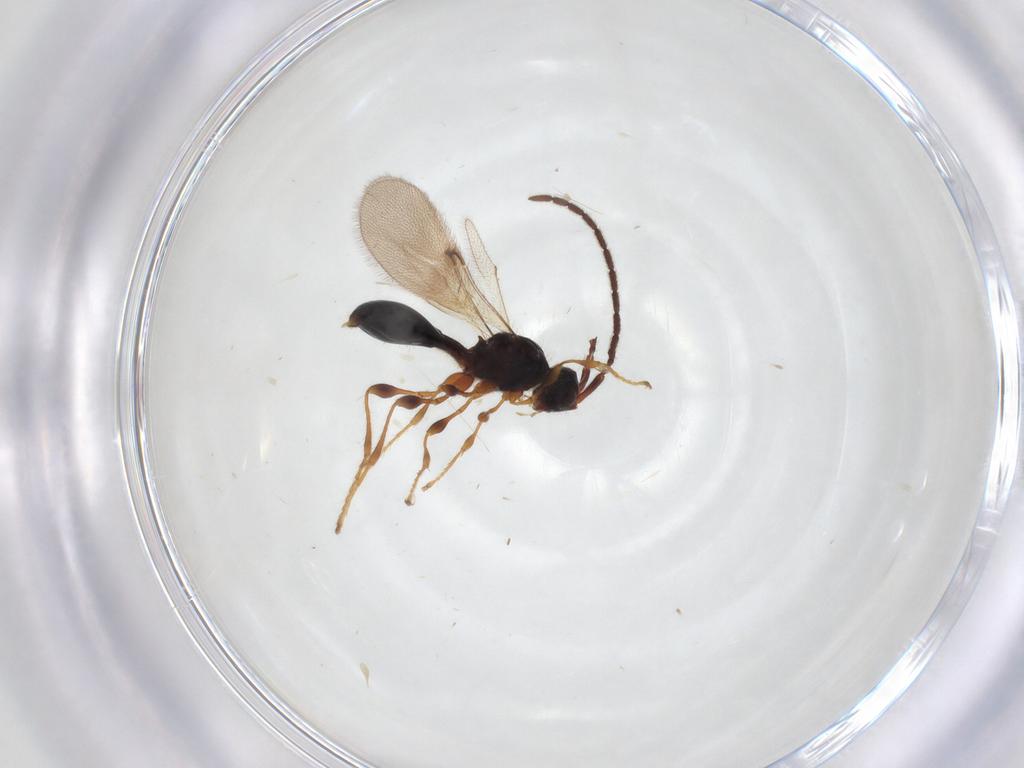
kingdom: Animalia
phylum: Arthropoda
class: Insecta
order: Hymenoptera
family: Diapriidae
